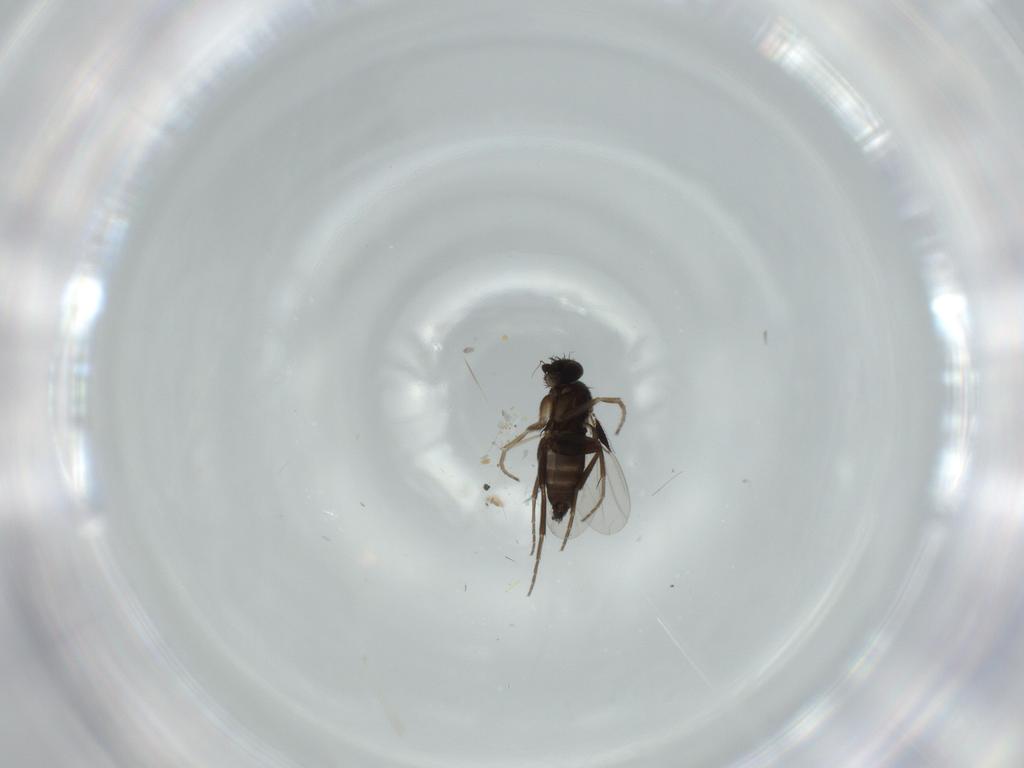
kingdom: Animalia
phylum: Arthropoda
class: Insecta
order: Diptera
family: Phoridae
